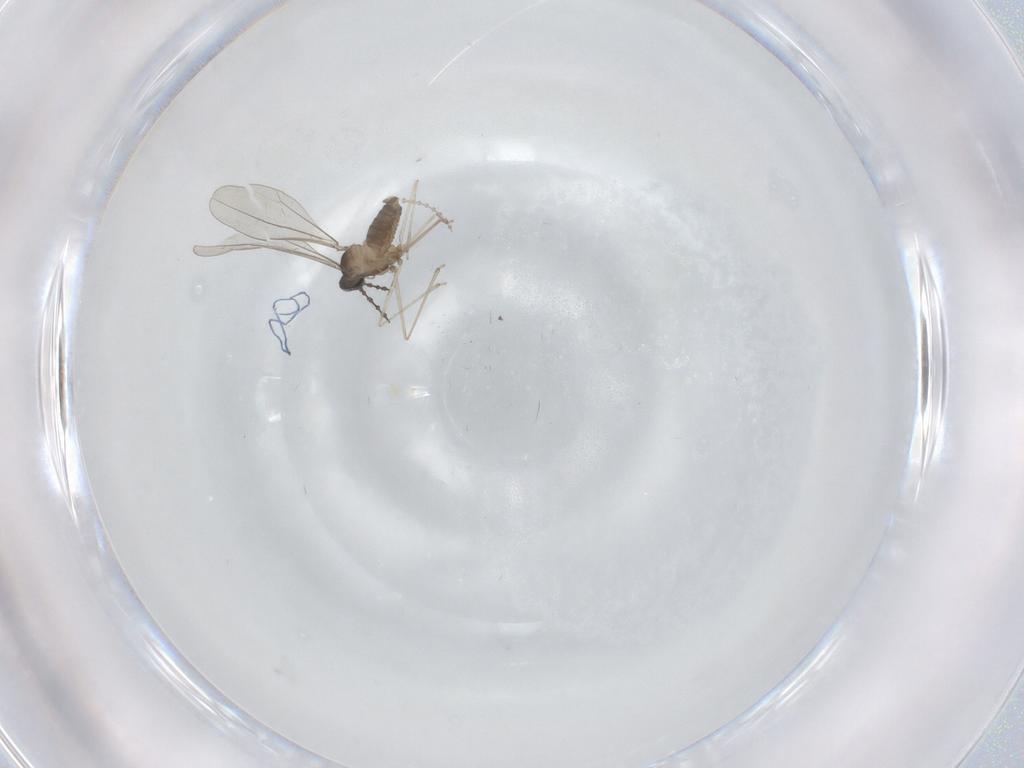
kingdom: Animalia
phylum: Arthropoda
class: Insecta
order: Diptera
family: Cecidomyiidae
